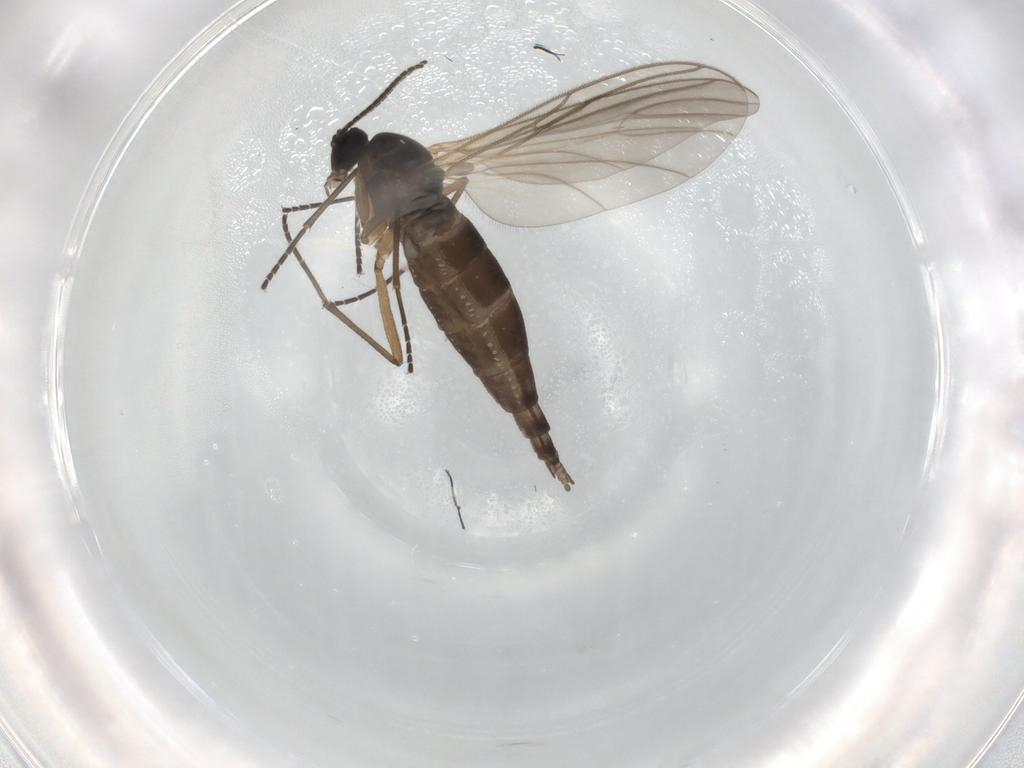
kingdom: Animalia
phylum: Arthropoda
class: Insecta
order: Diptera
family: Sciaridae
